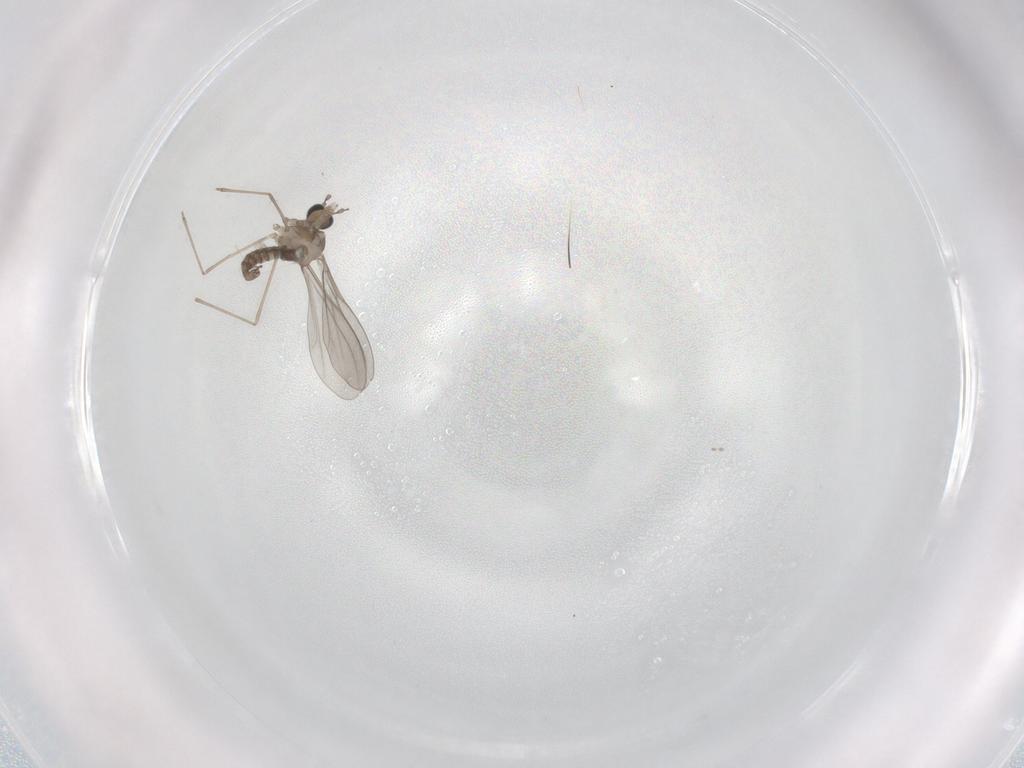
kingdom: Animalia
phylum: Arthropoda
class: Insecta
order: Diptera
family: Cecidomyiidae
